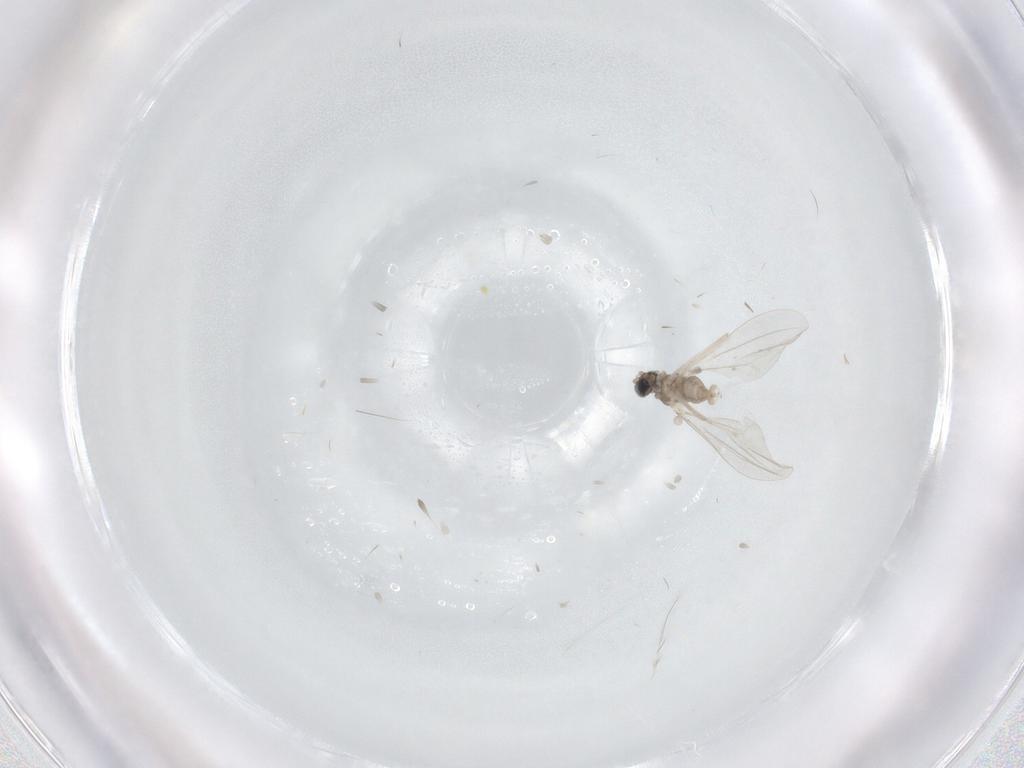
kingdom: Animalia
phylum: Arthropoda
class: Insecta
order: Diptera
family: Cecidomyiidae
